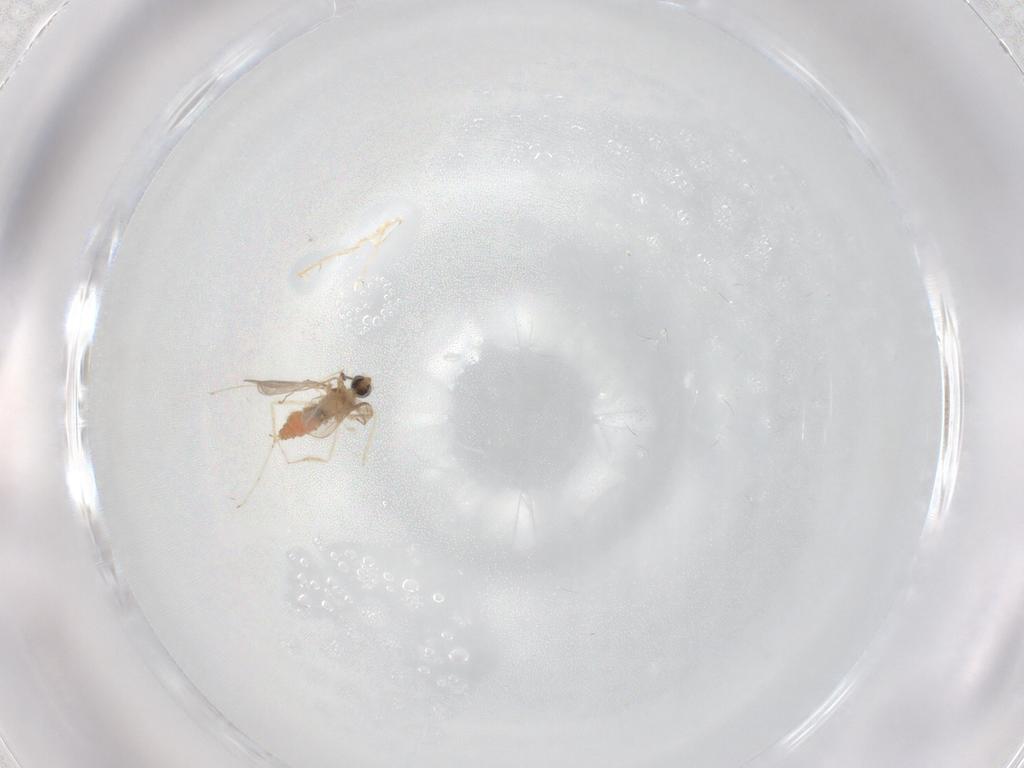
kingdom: Animalia
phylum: Arthropoda
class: Insecta
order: Diptera
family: Cecidomyiidae
